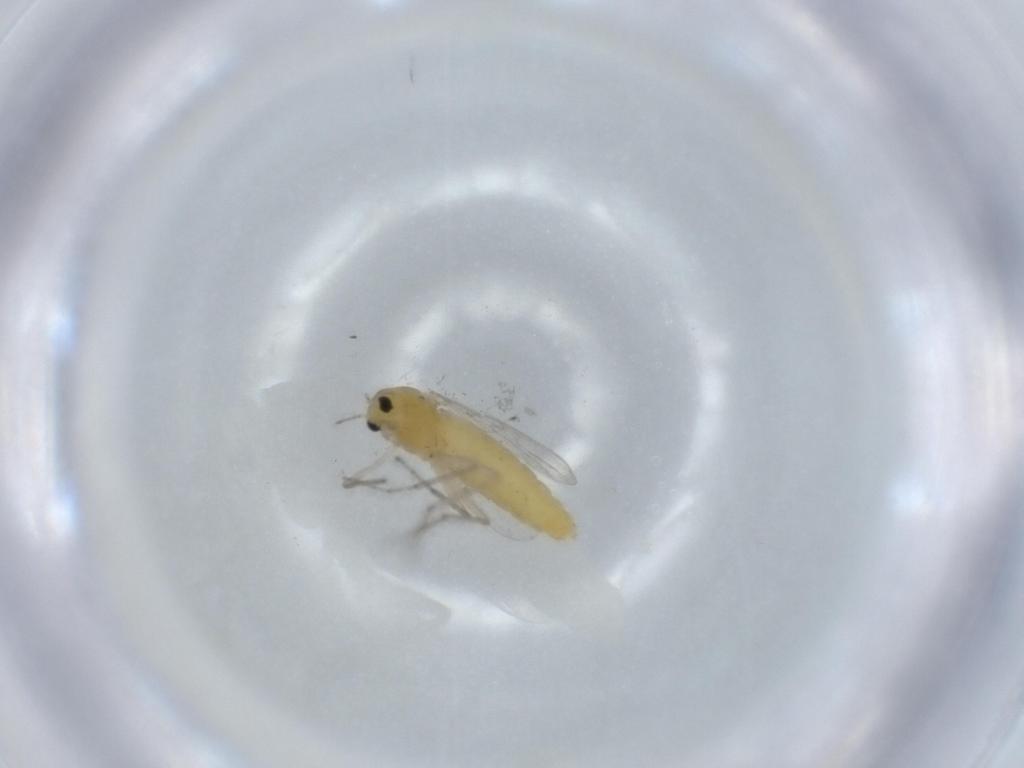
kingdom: Animalia
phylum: Arthropoda
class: Insecta
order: Diptera
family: Chironomidae
